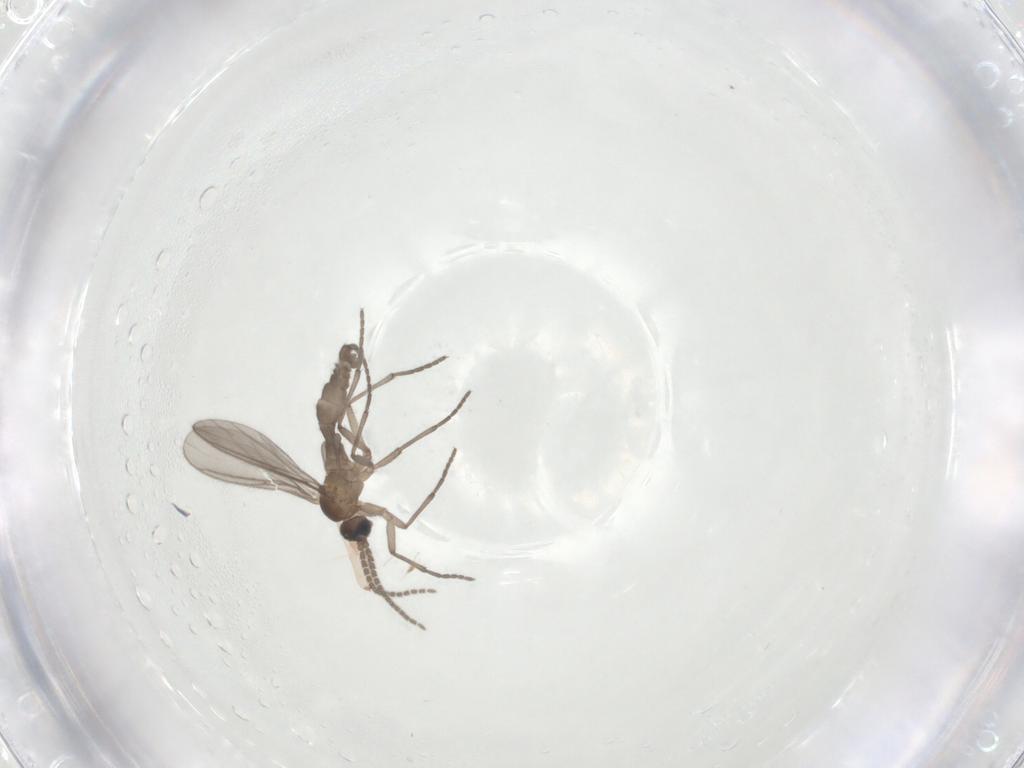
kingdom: Animalia
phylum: Arthropoda
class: Insecta
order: Diptera
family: Sciaridae
